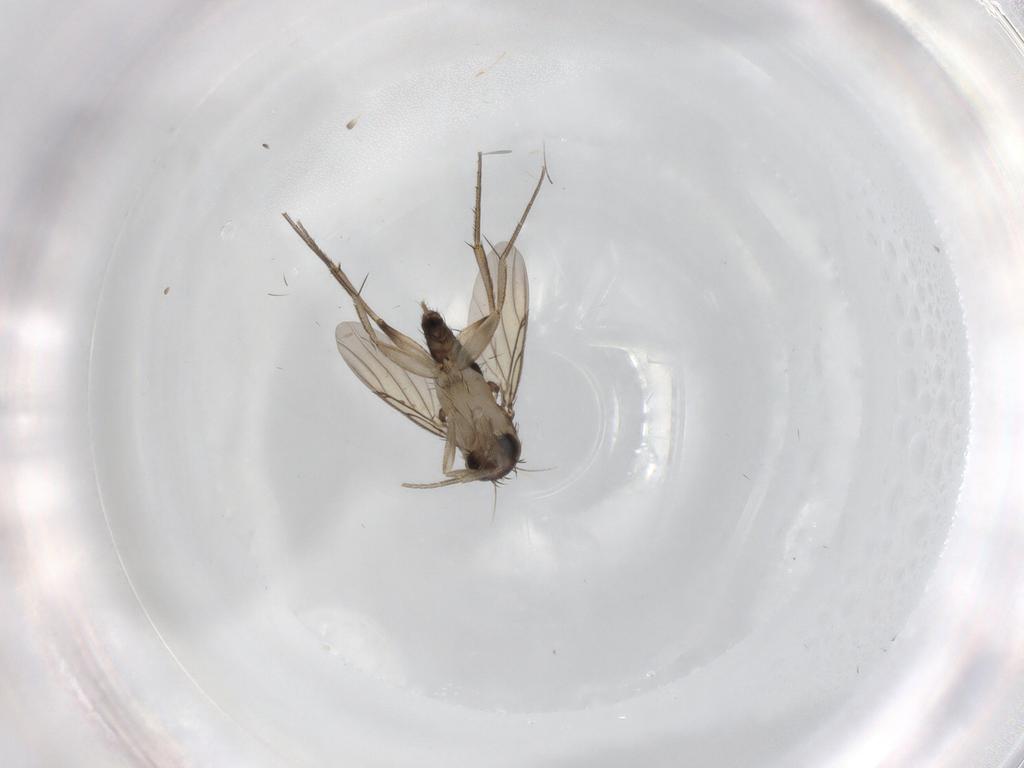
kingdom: Animalia
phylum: Arthropoda
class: Insecta
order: Diptera
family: Phoridae
